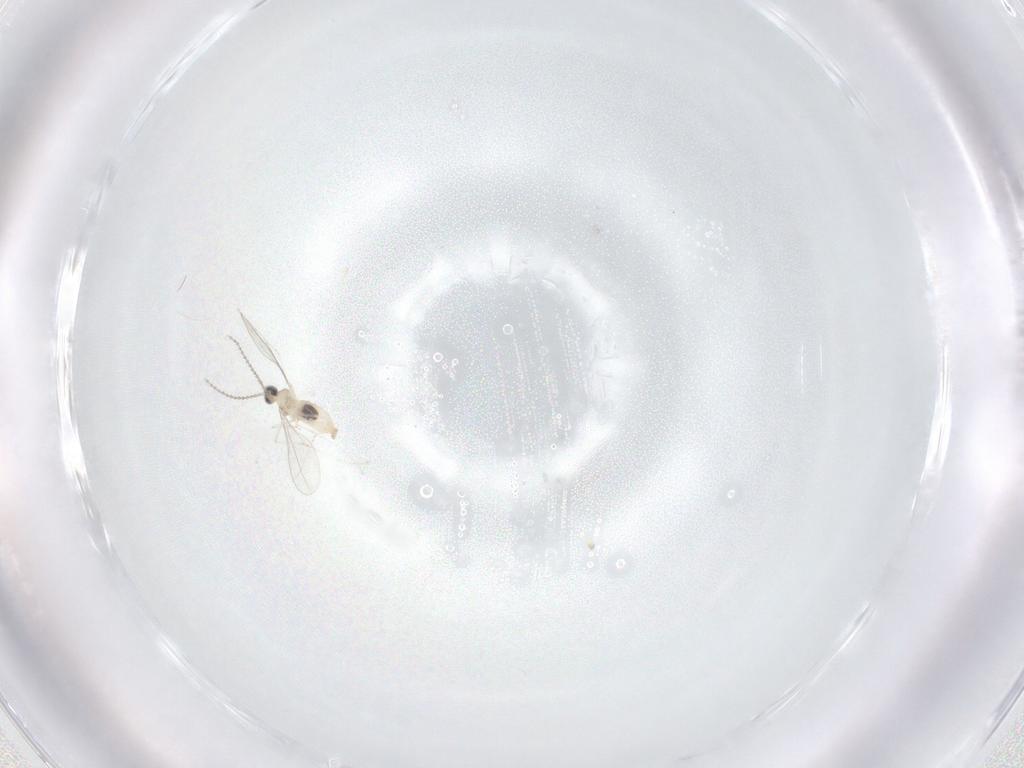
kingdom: Animalia
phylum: Arthropoda
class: Insecta
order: Diptera
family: Cecidomyiidae
